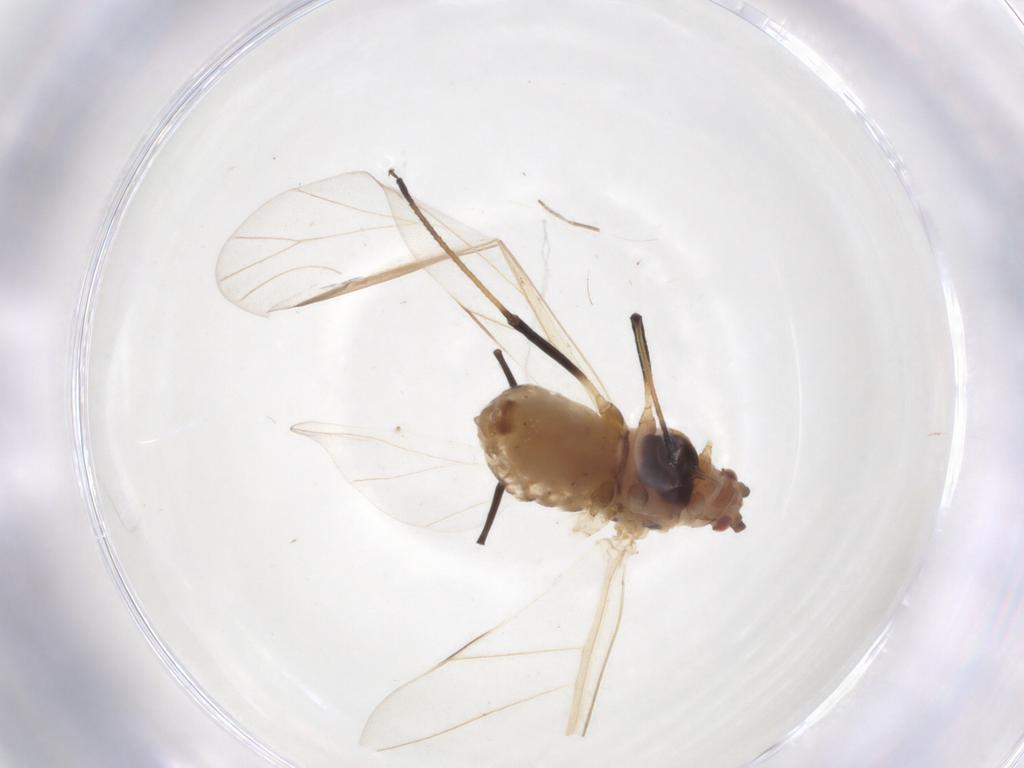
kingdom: Animalia
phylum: Arthropoda
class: Insecta
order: Hemiptera
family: Aphididae
